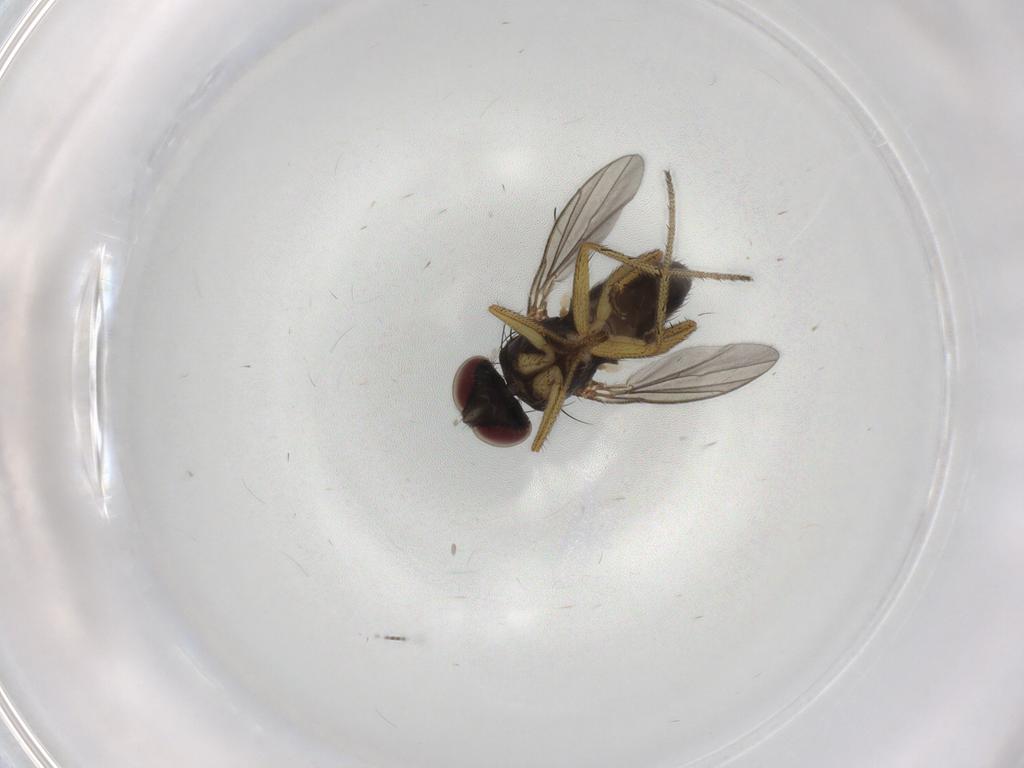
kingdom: Animalia
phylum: Arthropoda
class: Insecta
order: Diptera
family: Dolichopodidae
